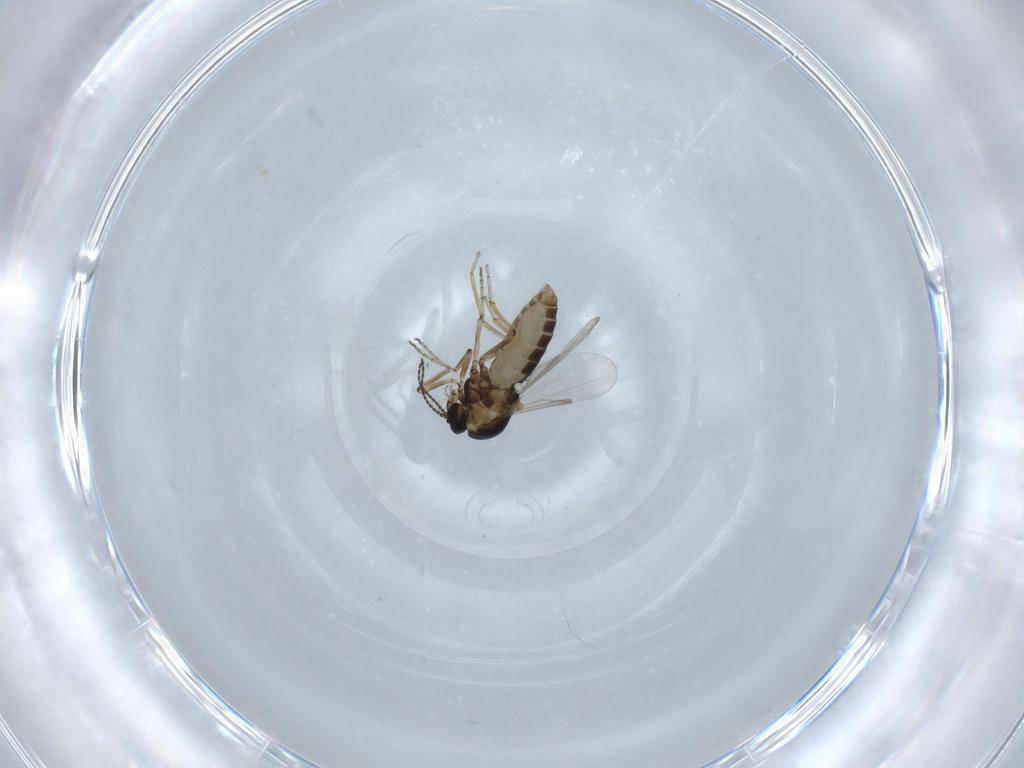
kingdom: Animalia
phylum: Arthropoda
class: Insecta
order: Diptera
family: Ceratopogonidae
